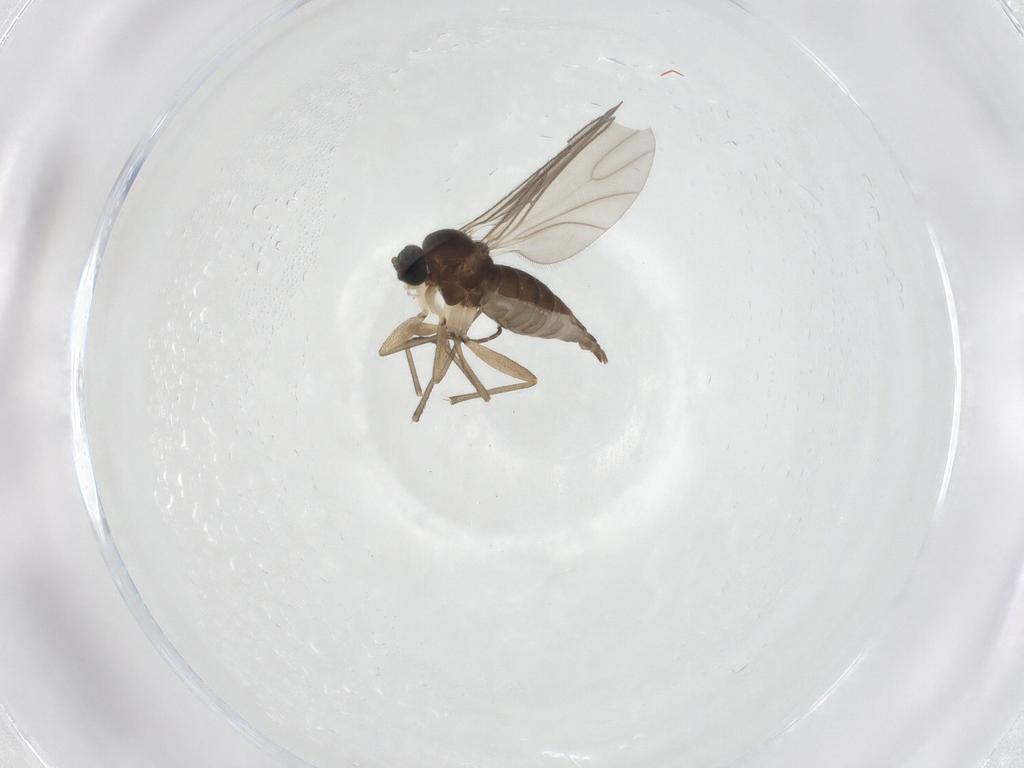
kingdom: Animalia
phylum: Arthropoda
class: Insecta
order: Diptera
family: Sciaridae
